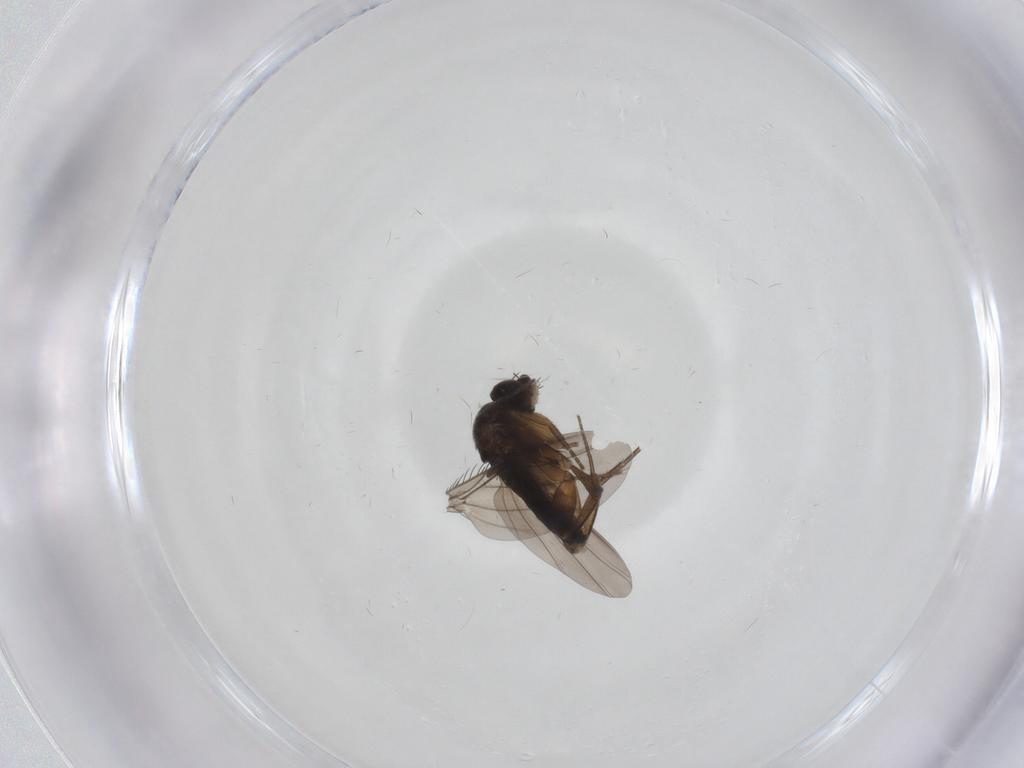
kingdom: Animalia
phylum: Arthropoda
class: Insecta
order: Diptera
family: Phoridae
